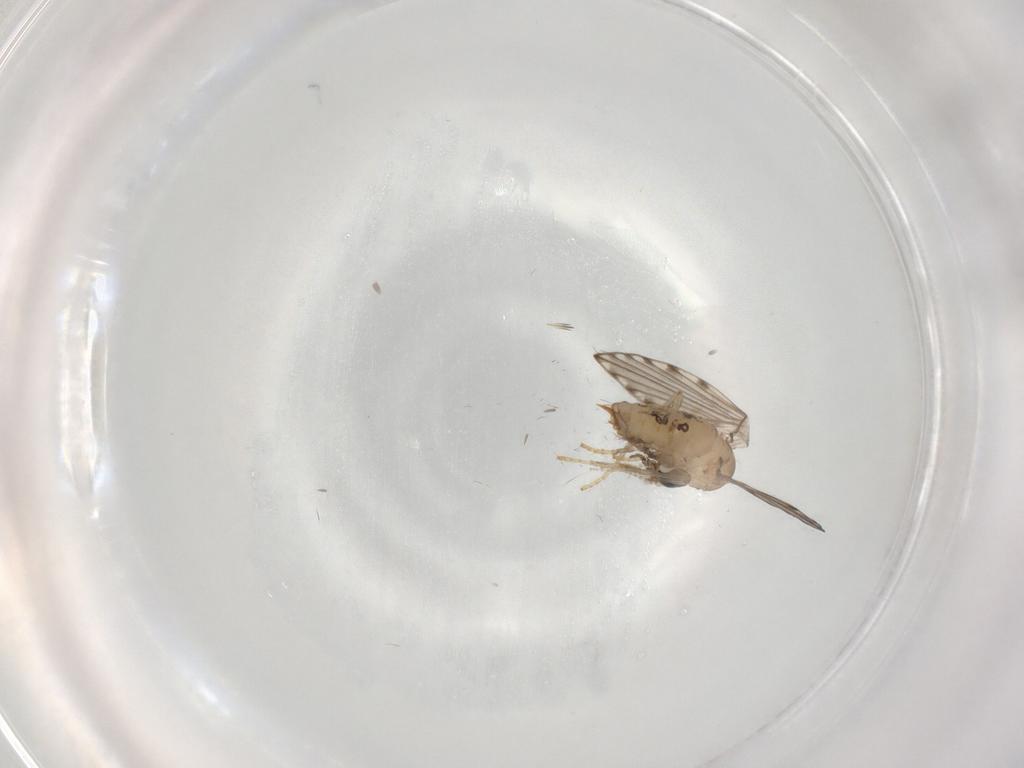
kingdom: Animalia
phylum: Arthropoda
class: Insecta
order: Diptera
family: Psychodidae
